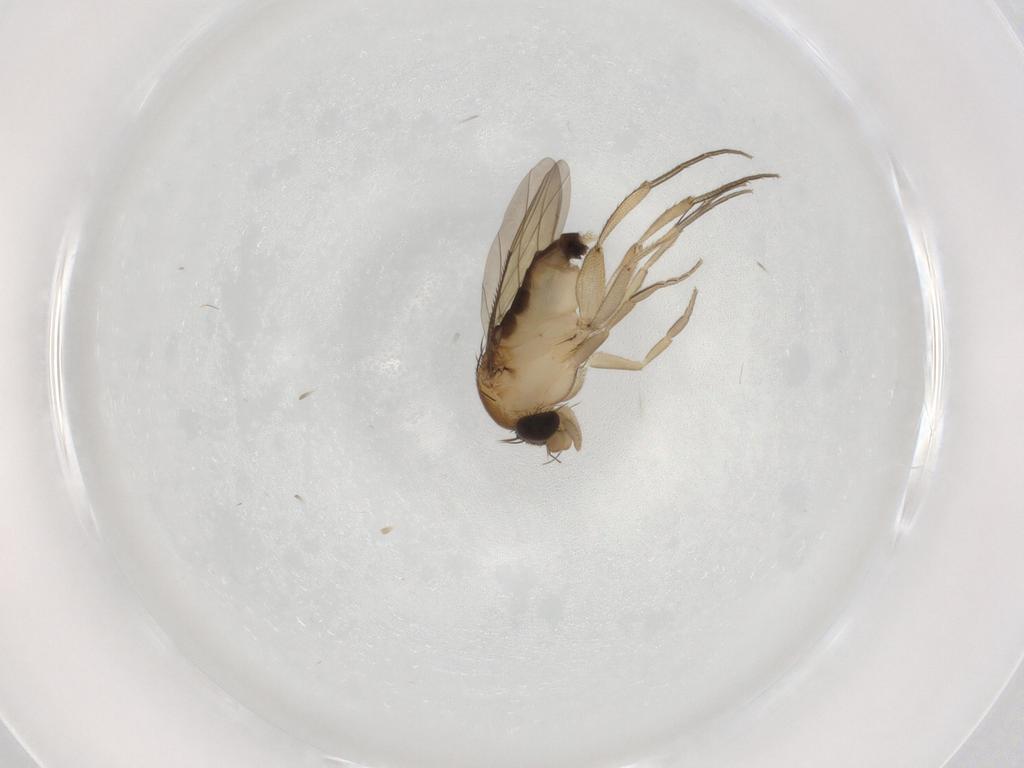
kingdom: Animalia
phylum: Arthropoda
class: Insecta
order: Diptera
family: Phoridae
